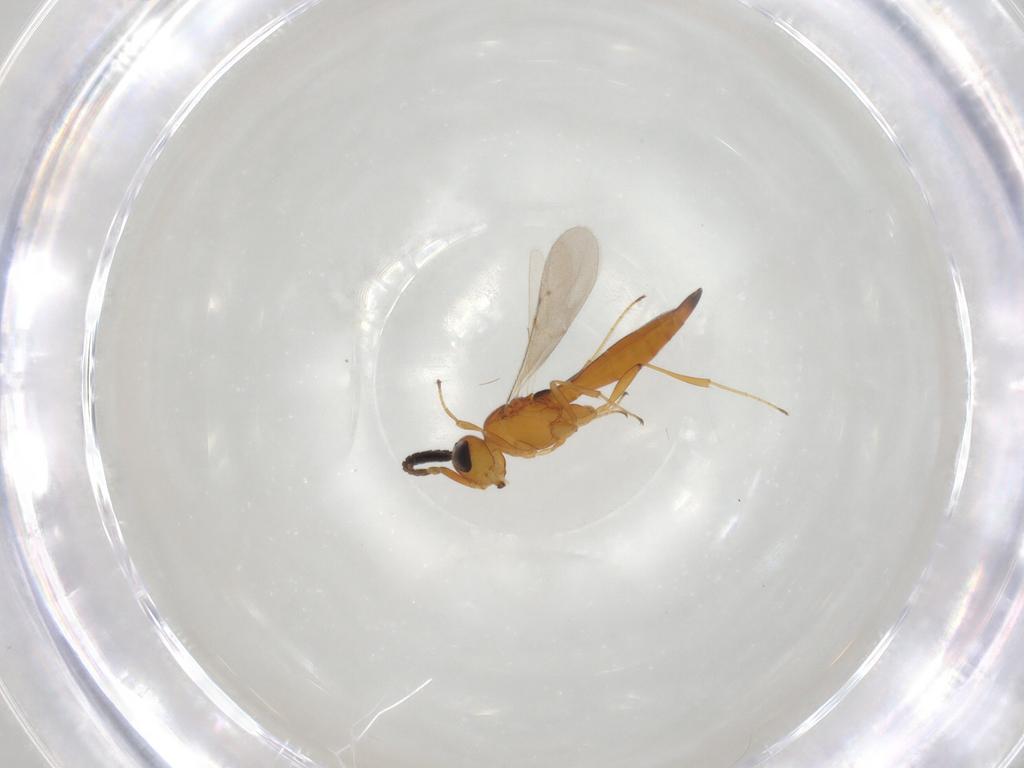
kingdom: Animalia
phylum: Arthropoda
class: Insecta
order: Hymenoptera
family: Scelionidae
